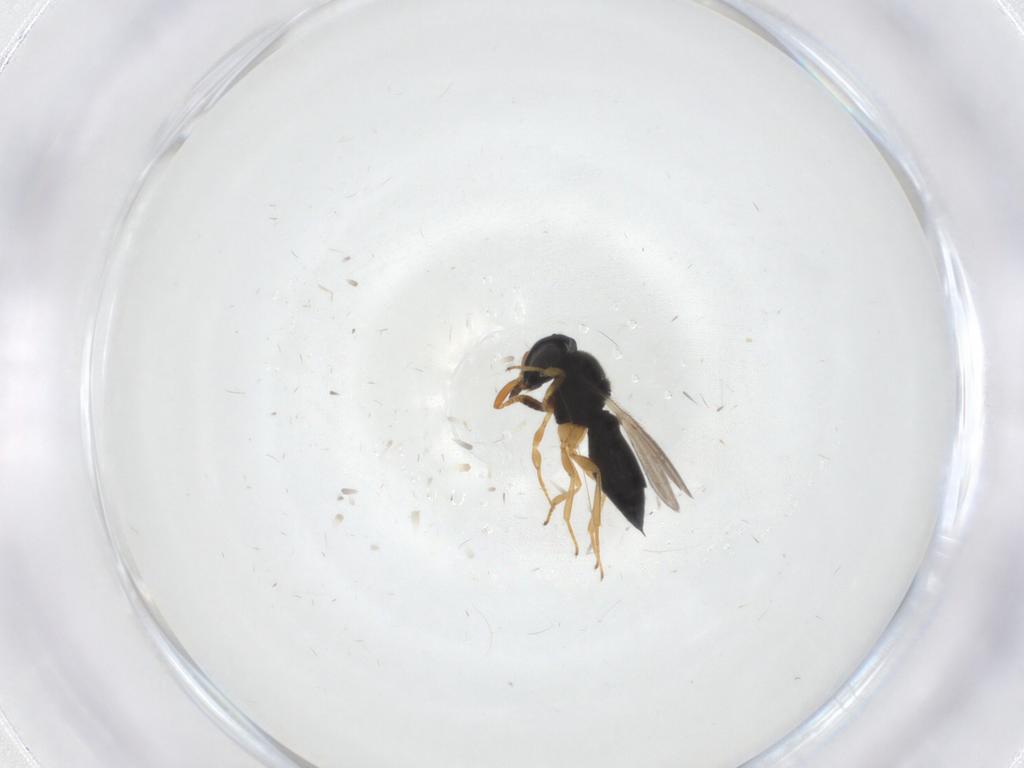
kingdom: Animalia
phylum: Arthropoda
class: Insecta
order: Hymenoptera
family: Scelionidae
